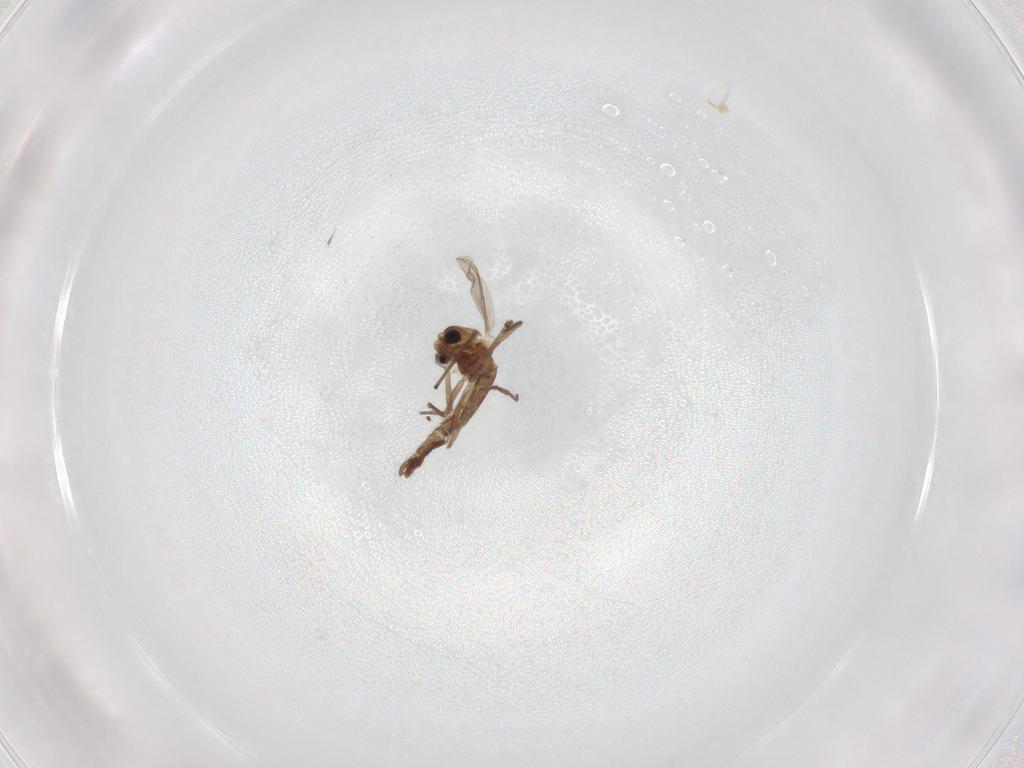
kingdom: Animalia
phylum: Arthropoda
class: Insecta
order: Diptera
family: Chironomidae
